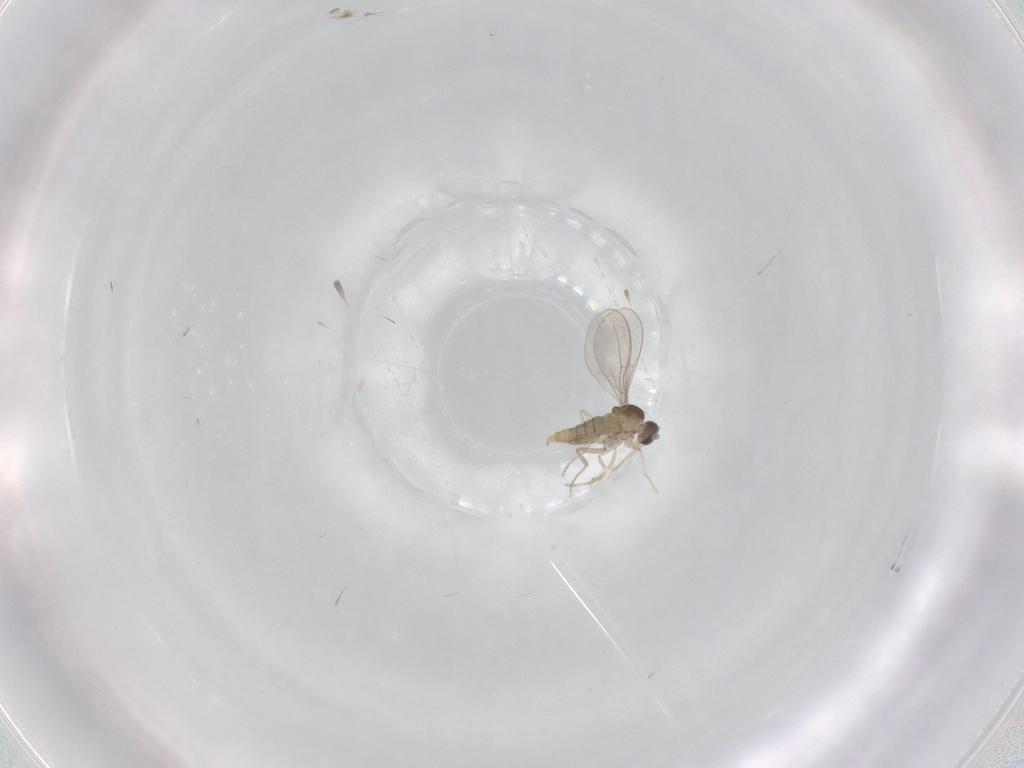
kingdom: Animalia
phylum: Arthropoda
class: Insecta
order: Diptera
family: Cecidomyiidae
